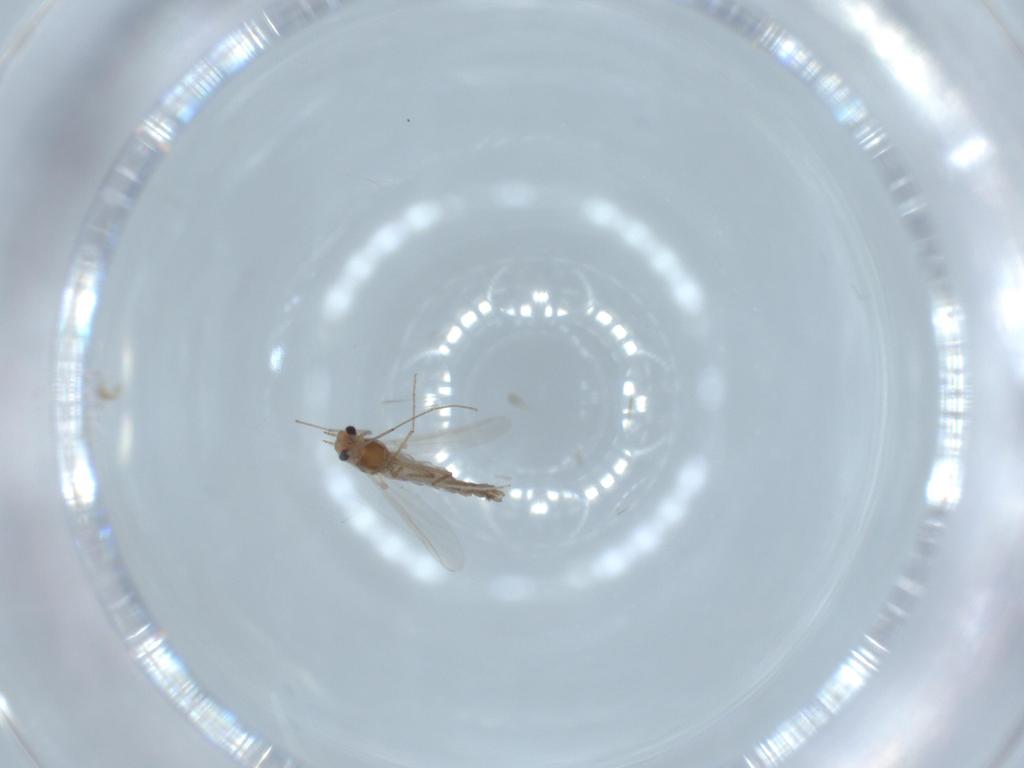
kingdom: Animalia
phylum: Arthropoda
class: Insecta
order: Diptera
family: Chironomidae
